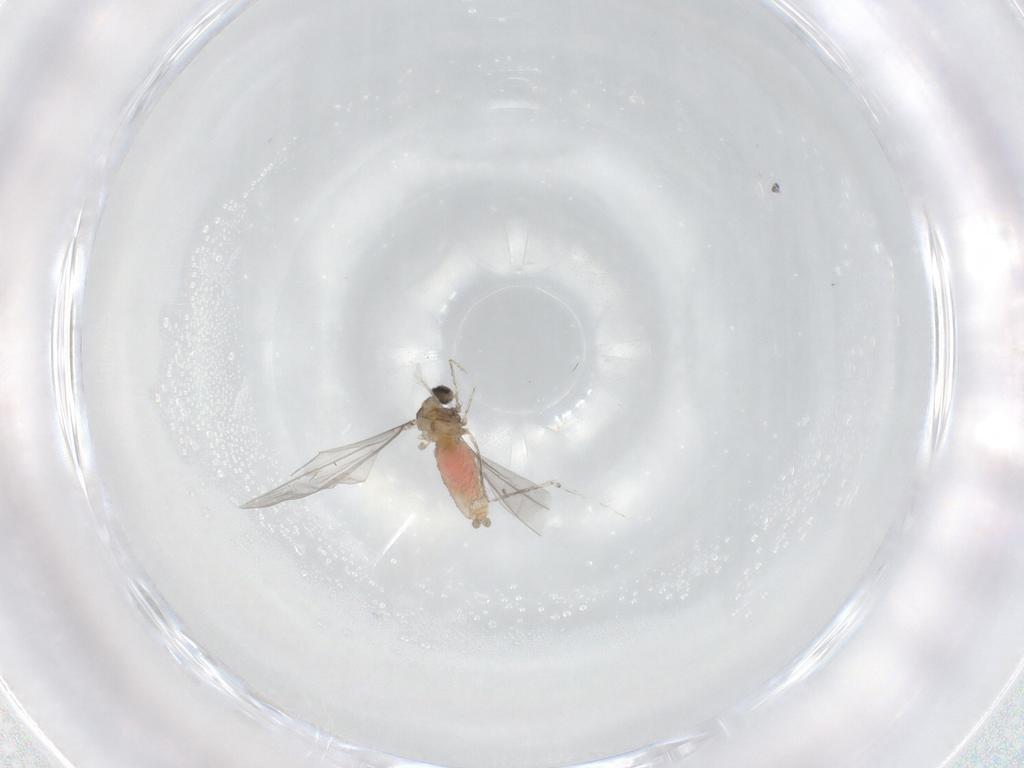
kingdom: Animalia
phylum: Arthropoda
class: Insecta
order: Diptera
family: Cecidomyiidae
